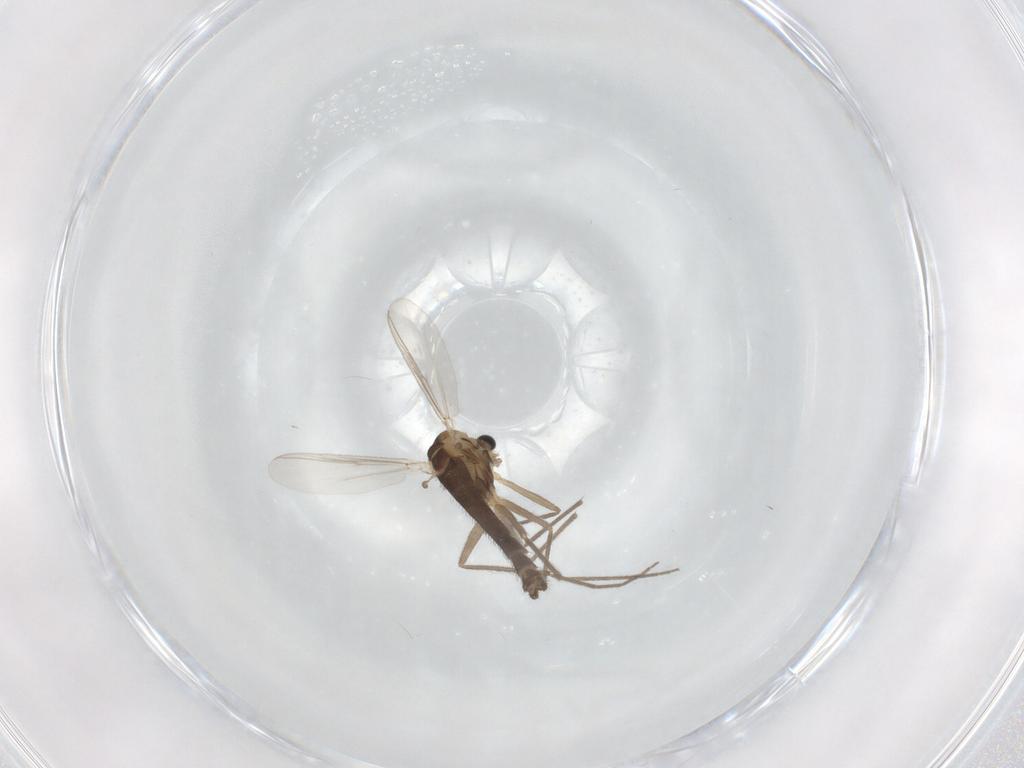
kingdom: Animalia
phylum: Arthropoda
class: Insecta
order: Diptera
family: Chironomidae
